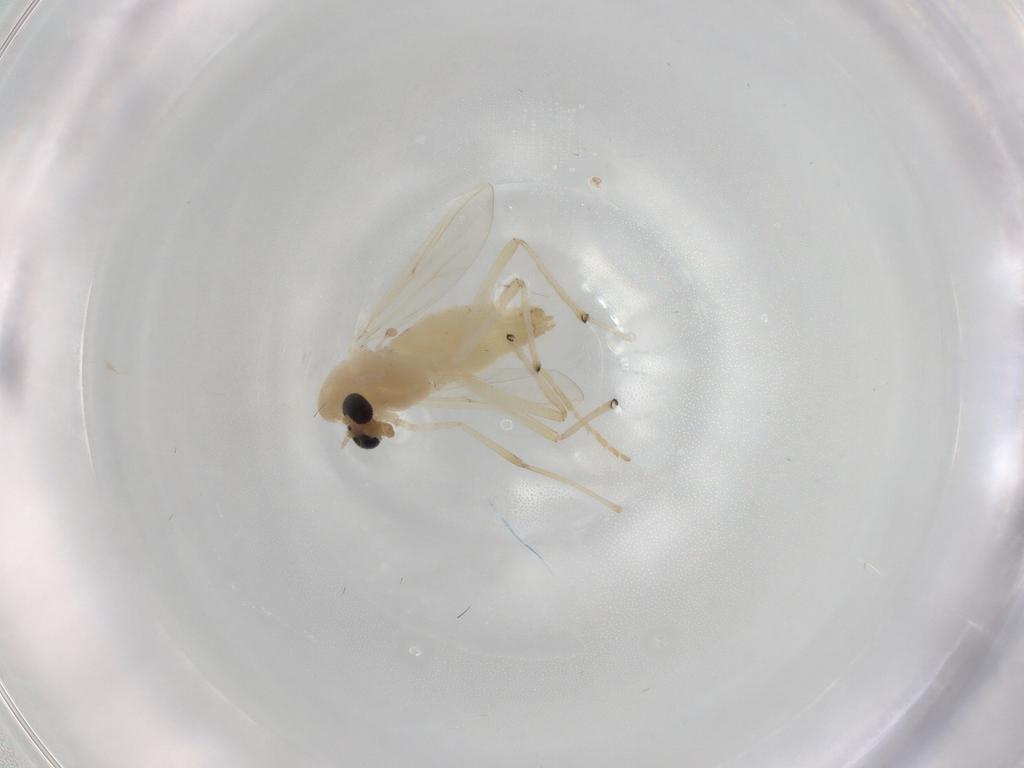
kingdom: Animalia
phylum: Arthropoda
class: Insecta
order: Diptera
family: Chironomidae
